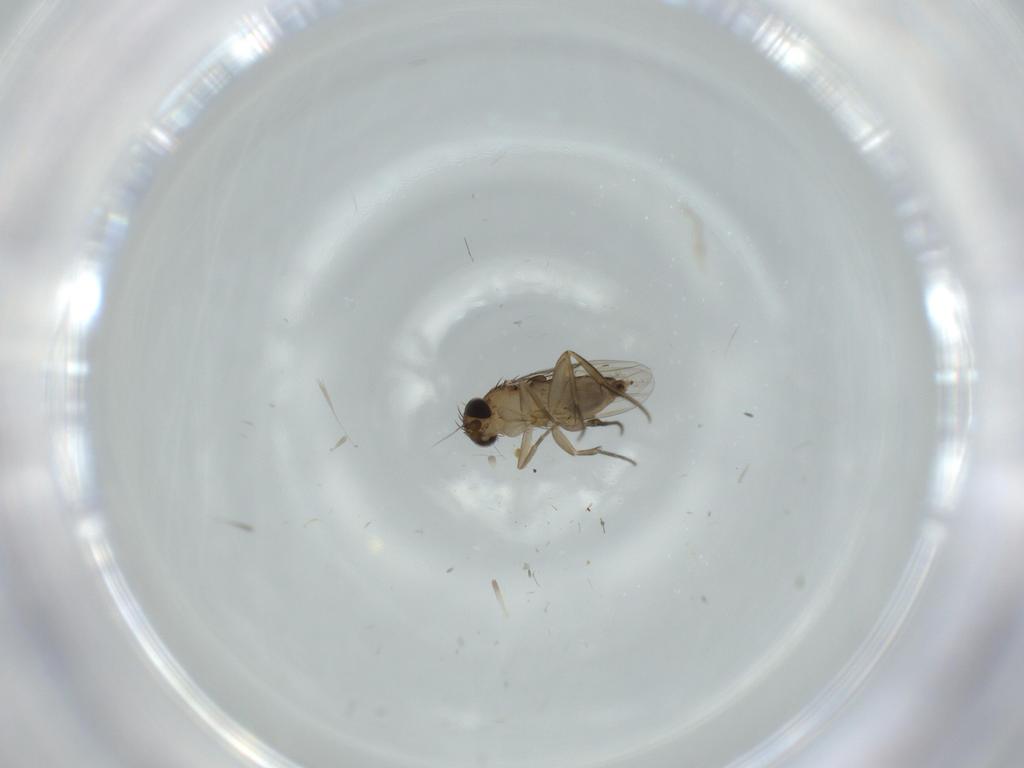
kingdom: Animalia
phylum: Arthropoda
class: Insecta
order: Diptera
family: Phoridae
